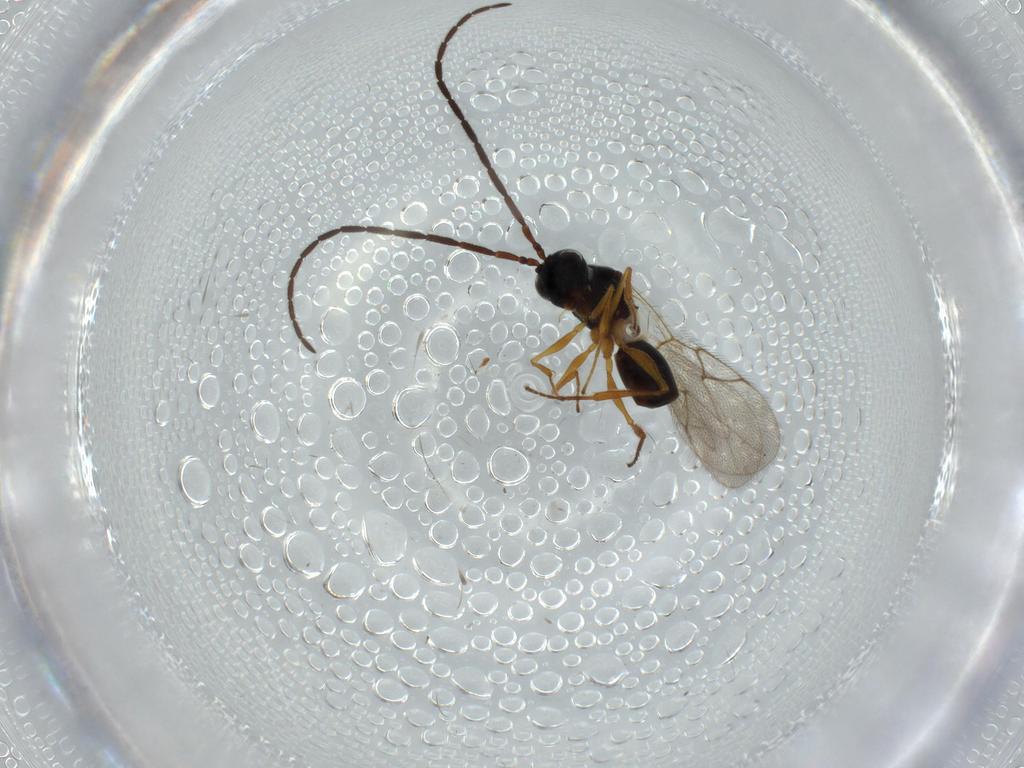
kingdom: Animalia
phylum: Arthropoda
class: Insecta
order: Hymenoptera
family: Figitidae
